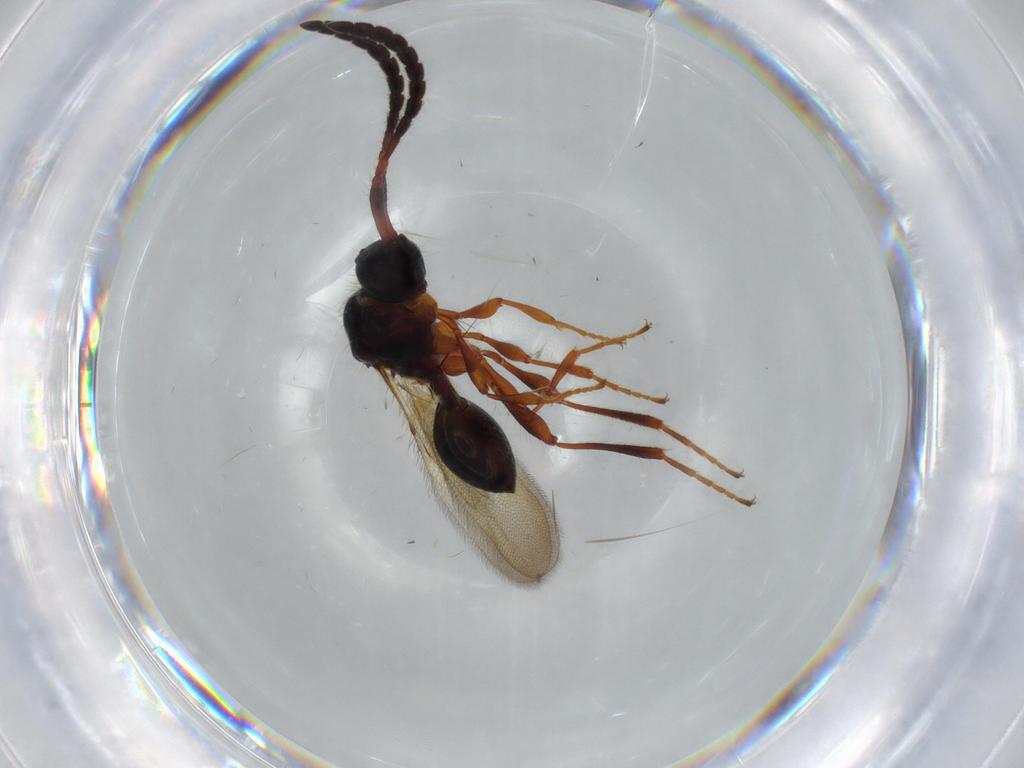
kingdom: Animalia
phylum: Arthropoda
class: Insecta
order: Hymenoptera
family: Diapriidae
